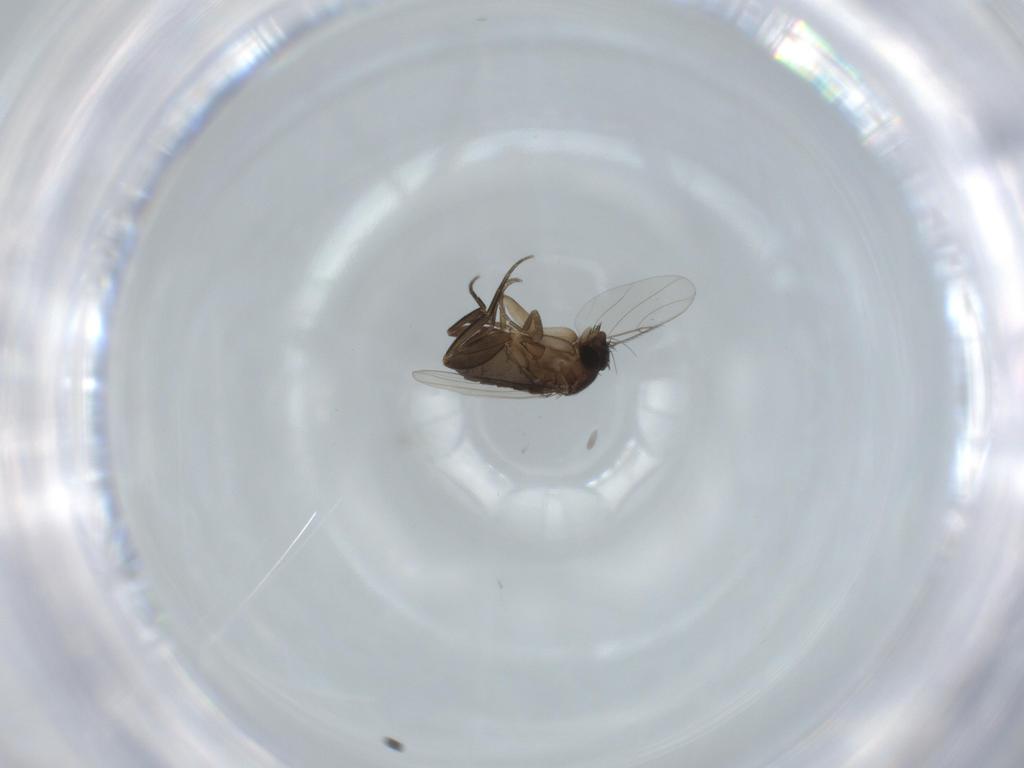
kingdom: Animalia
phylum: Arthropoda
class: Insecta
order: Diptera
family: Phoridae
